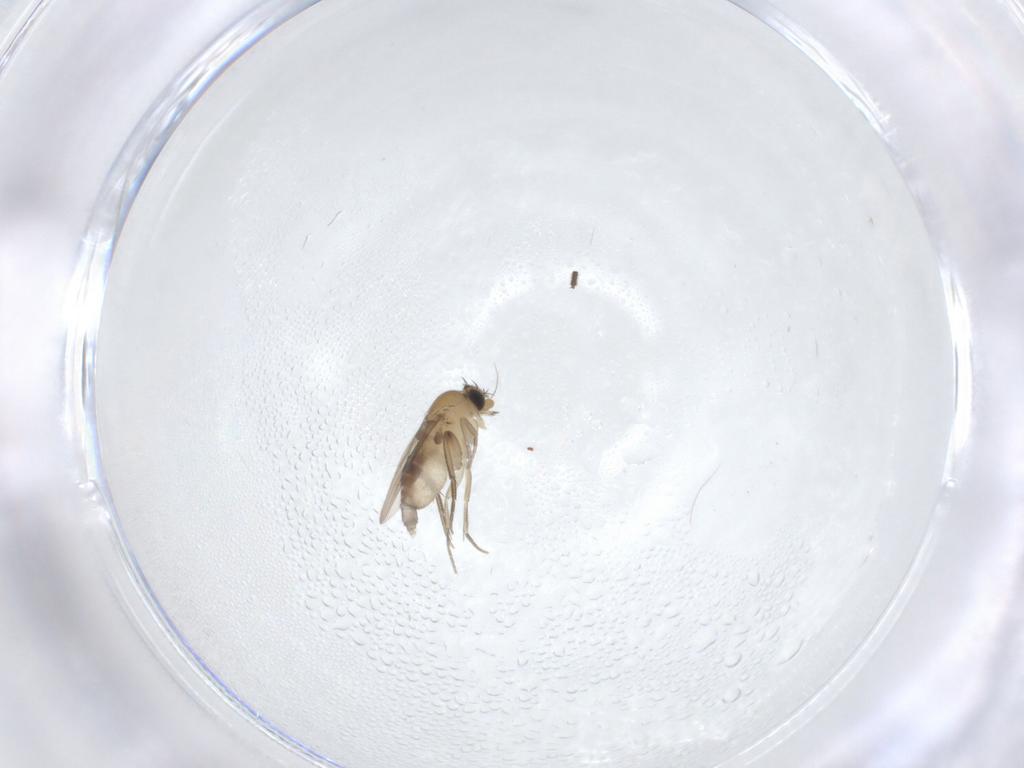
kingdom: Animalia
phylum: Arthropoda
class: Insecta
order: Diptera
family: Phoridae
